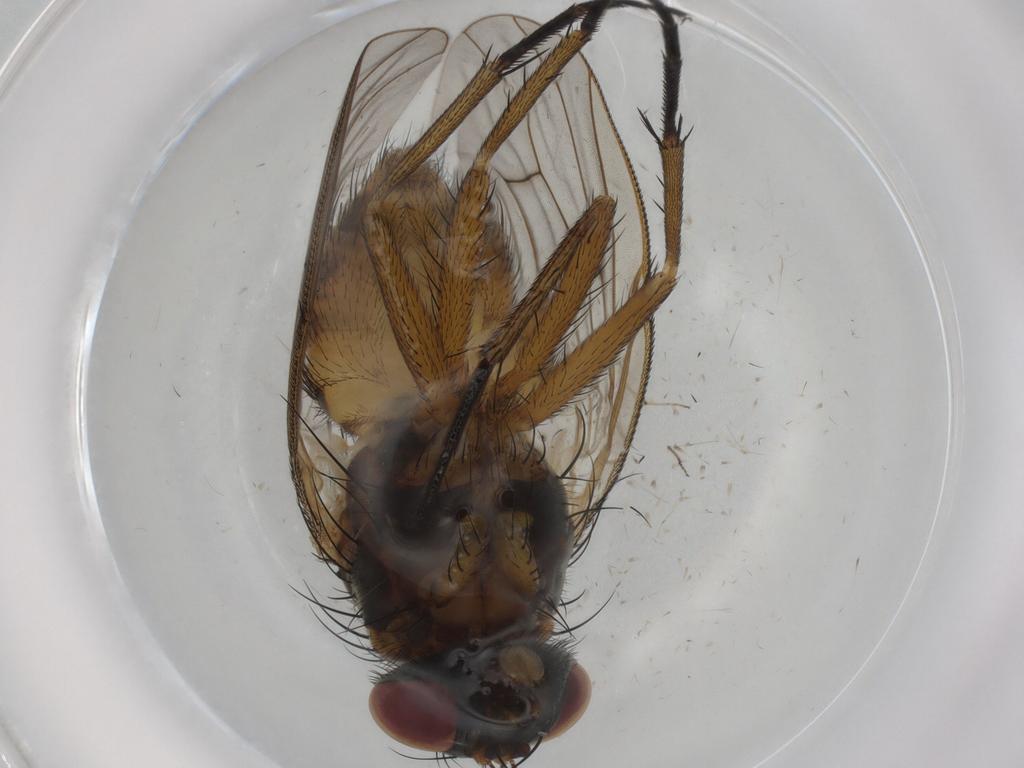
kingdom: Animalia
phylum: Arthropoda
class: Insecta
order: Diptera
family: Muscidae
